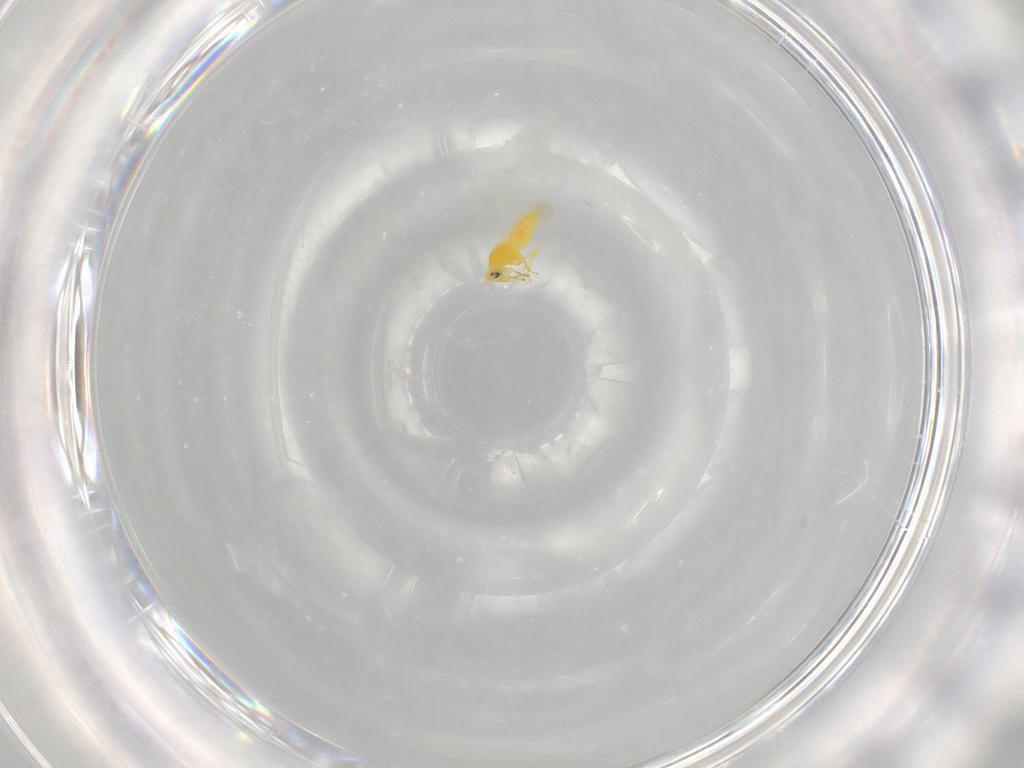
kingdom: Animalia
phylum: Arthropoda
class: Insecta
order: Hemiptera
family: Aleyrodidae
